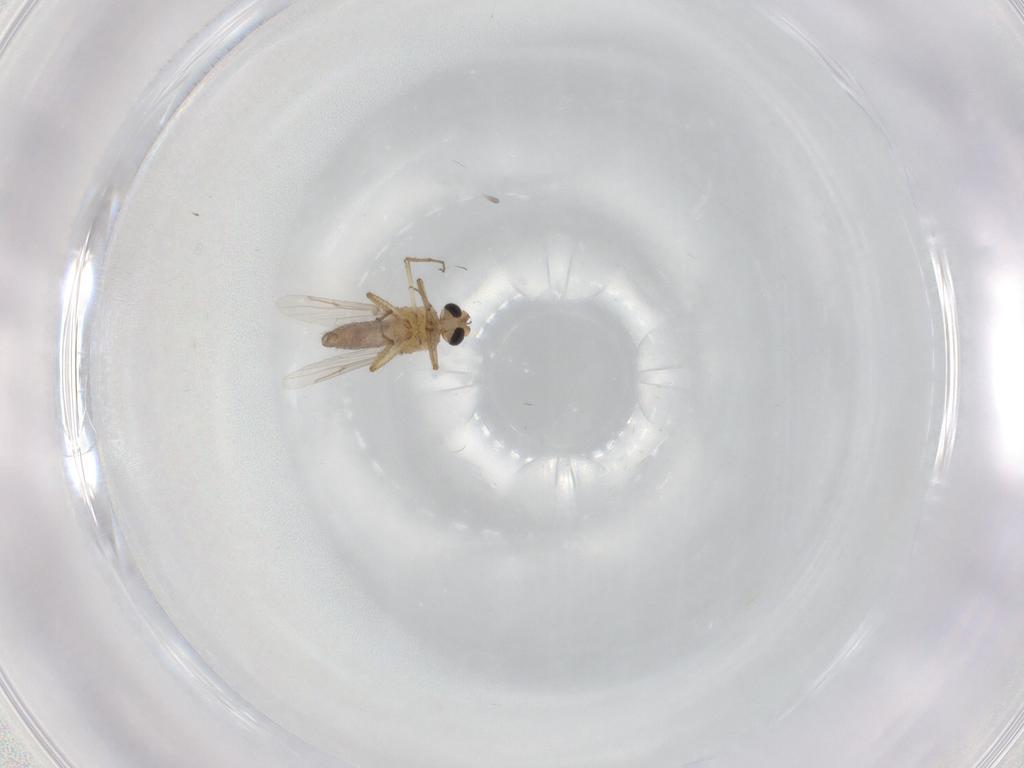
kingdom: Animalia
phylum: Arthropoda
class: Insecta
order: Diptera
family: Ceratopogonidae
